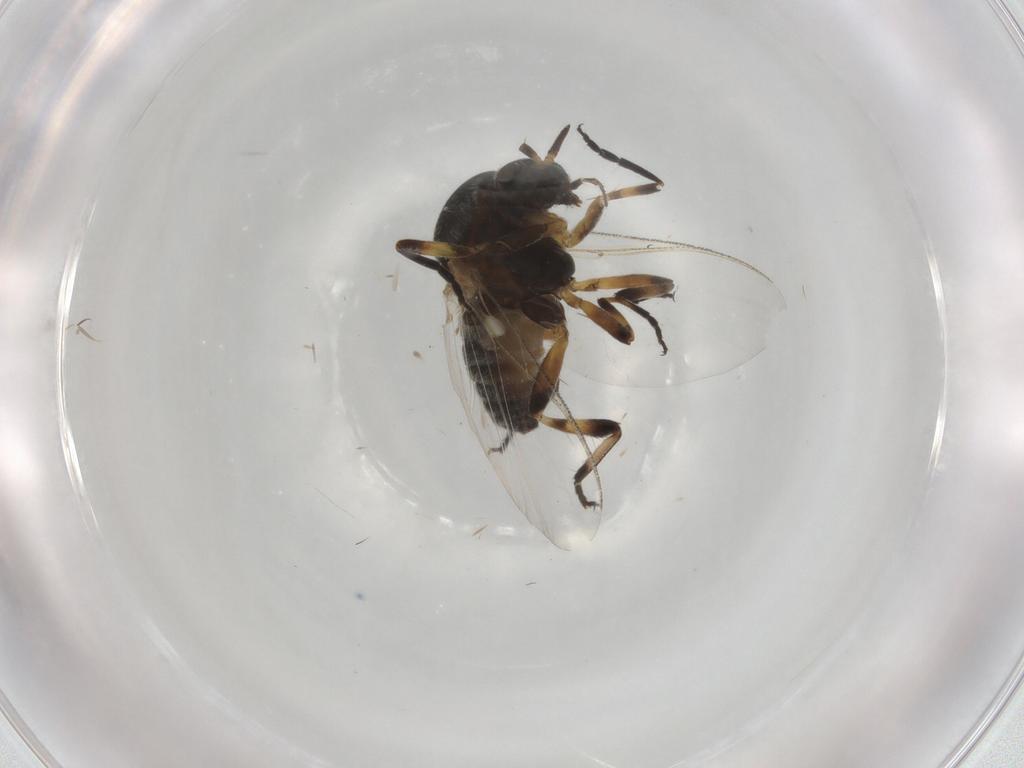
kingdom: Animalia
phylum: Arthropoda
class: Insecta
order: Diptera
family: Agromyzidae
